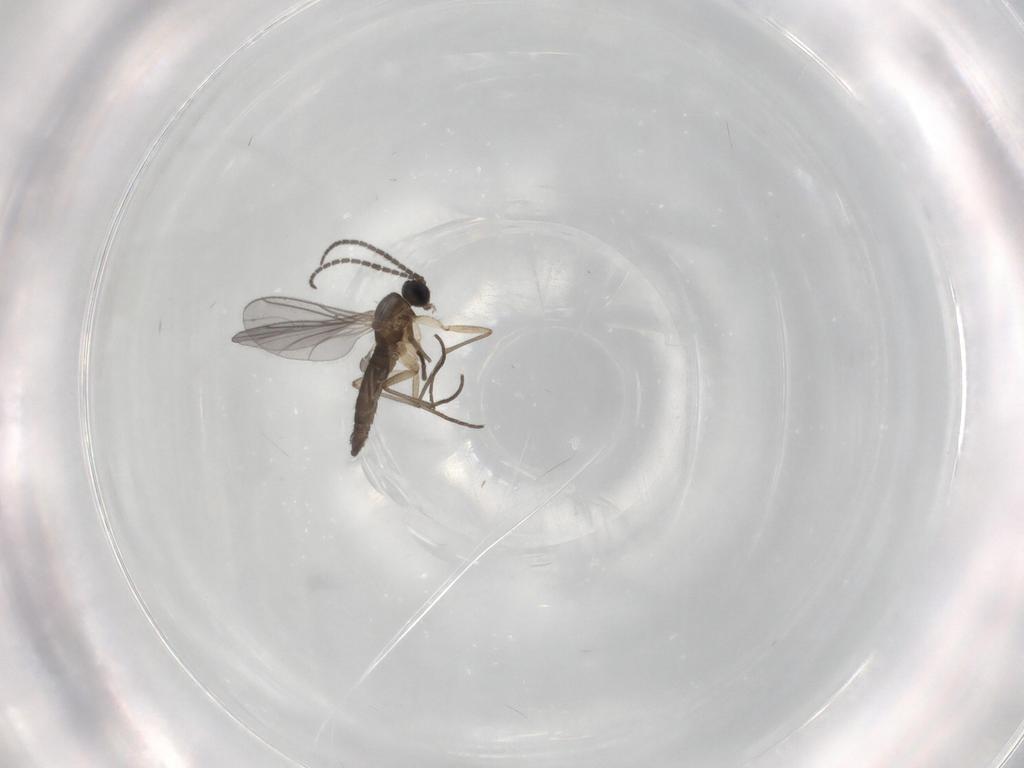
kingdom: Animalia
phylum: Arthropoda
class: Insecta
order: Diptera
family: Sciaridae
